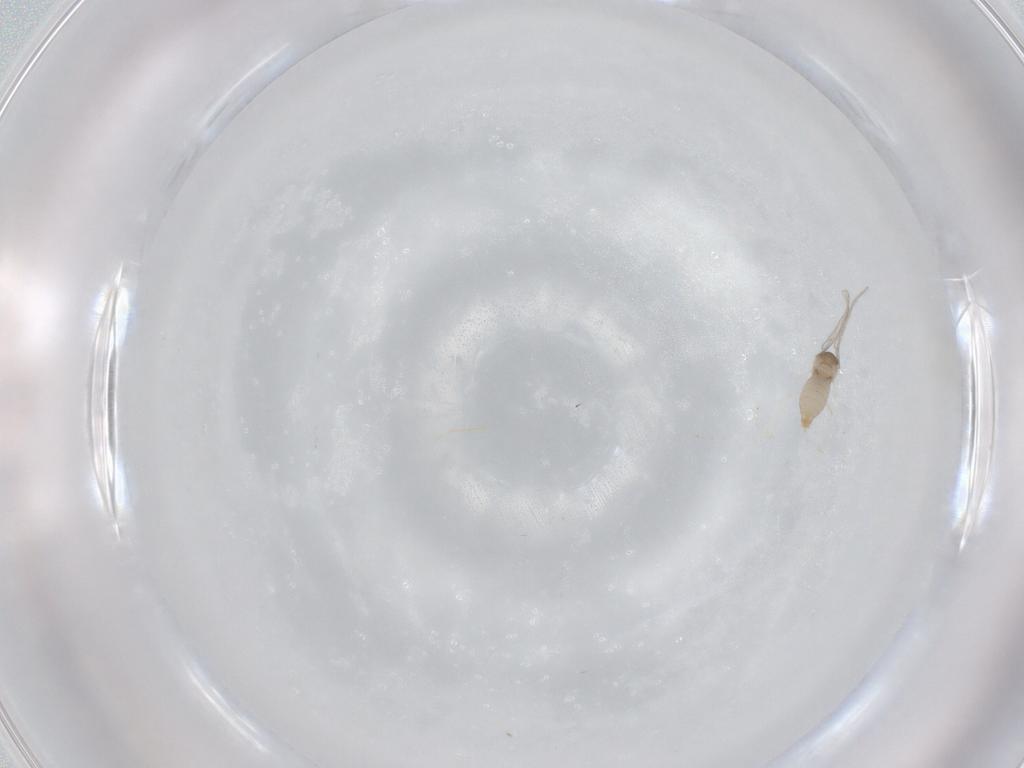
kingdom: Animalia
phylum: Arthropoda
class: Insecta
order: Diptera
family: Cecidomyiidae
